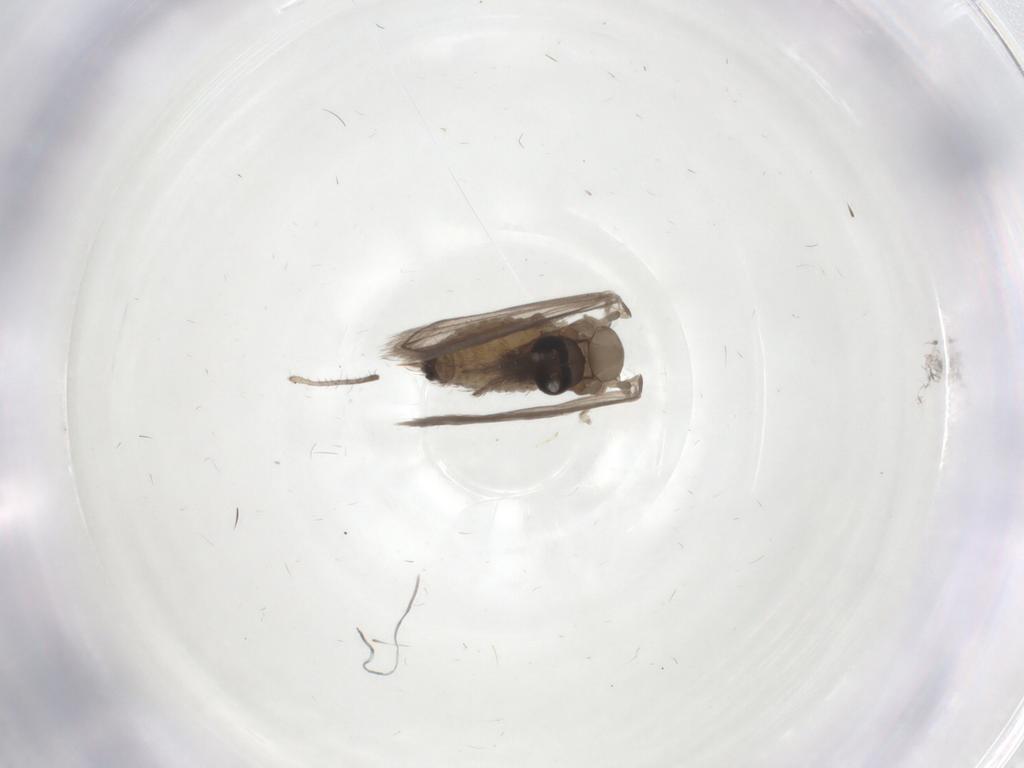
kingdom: Animalia
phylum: Arthropoda
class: Insecta
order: Diptera
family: Psychodidae
